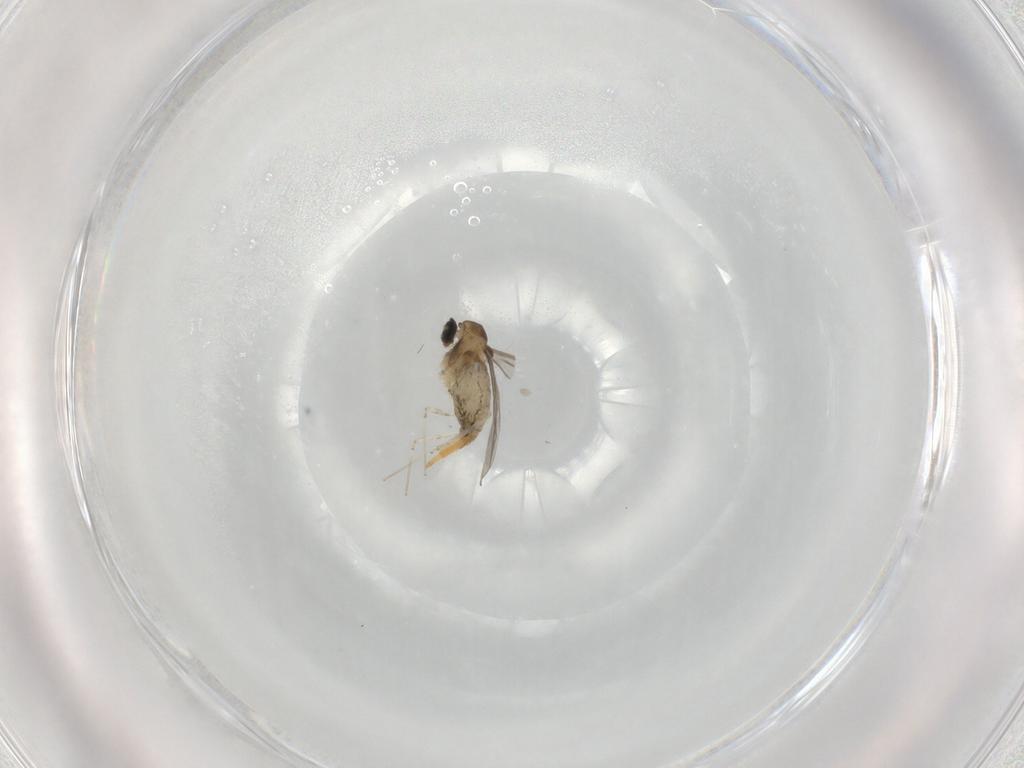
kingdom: Animalia
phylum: Arthropoda
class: Insecta
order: Diptera
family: Cecidomyiidae
